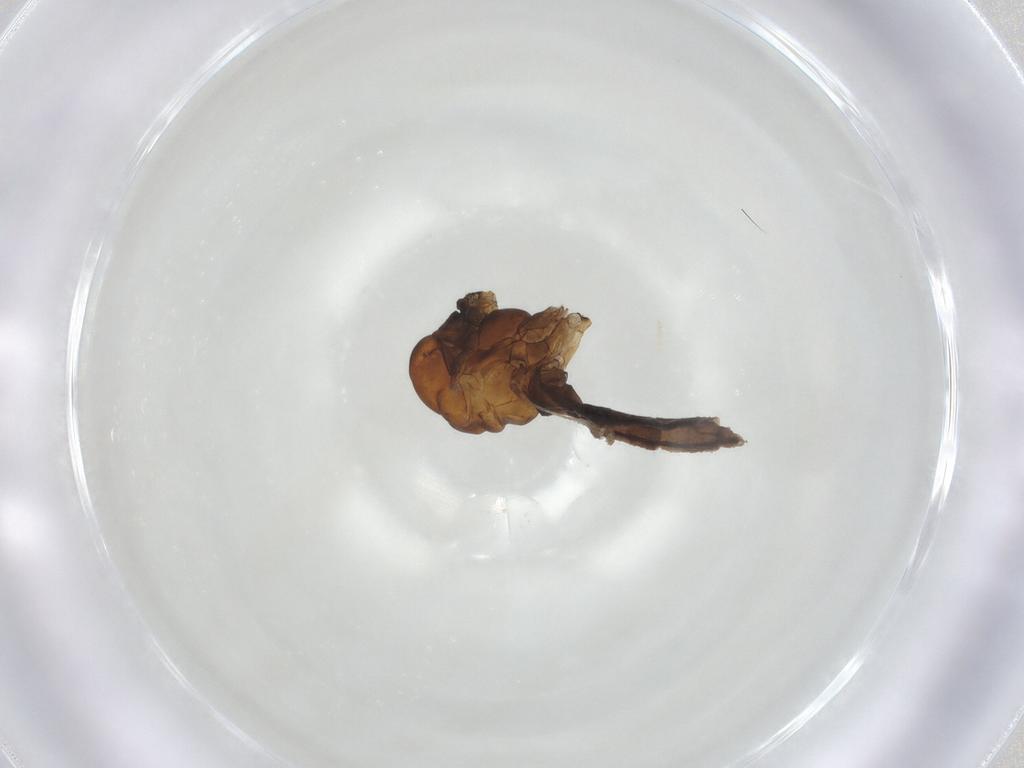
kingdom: Animalia
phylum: Arthropoda
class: Insecta
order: Diptera
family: Limoniidae
